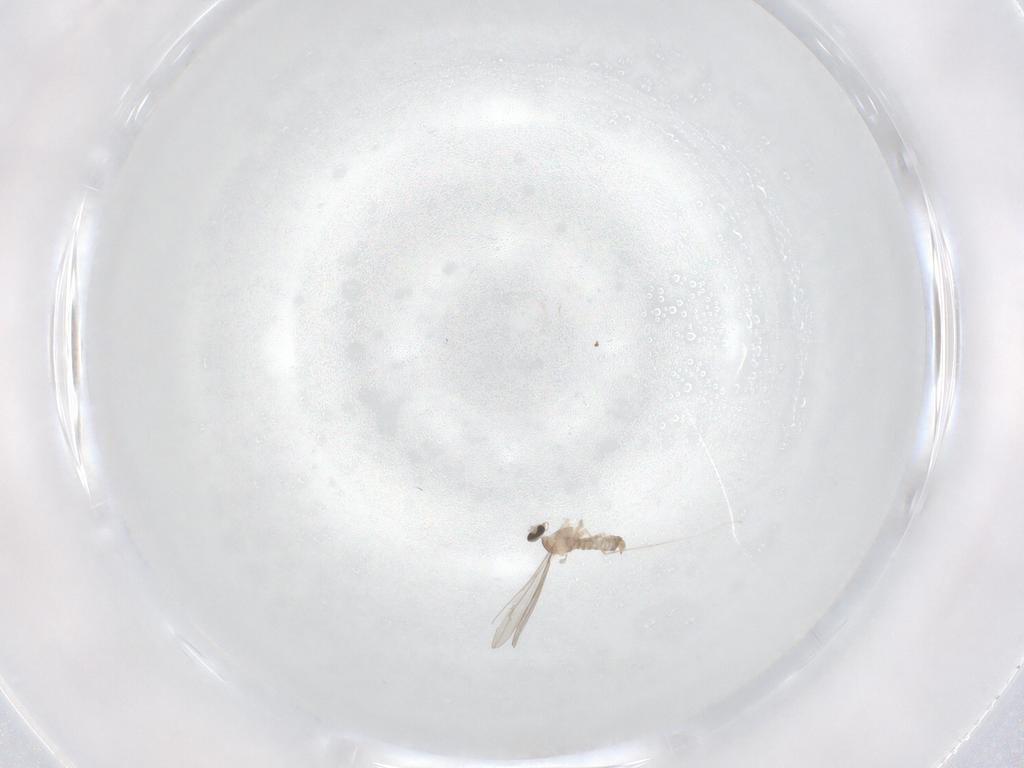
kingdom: Animalia
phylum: Arthropoda
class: Insecta
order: Diptera
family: Cecidomyiidae
